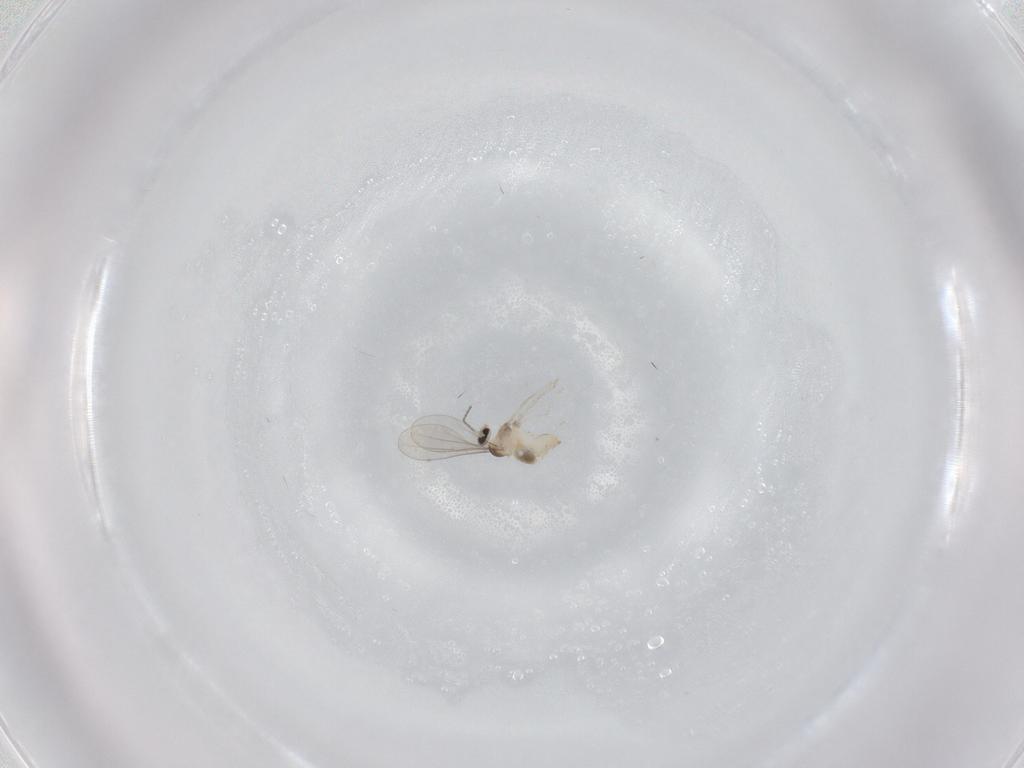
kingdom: Animalia
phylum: Arthropoda
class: Insecta
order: Diptera
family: Cecidomyiidae
